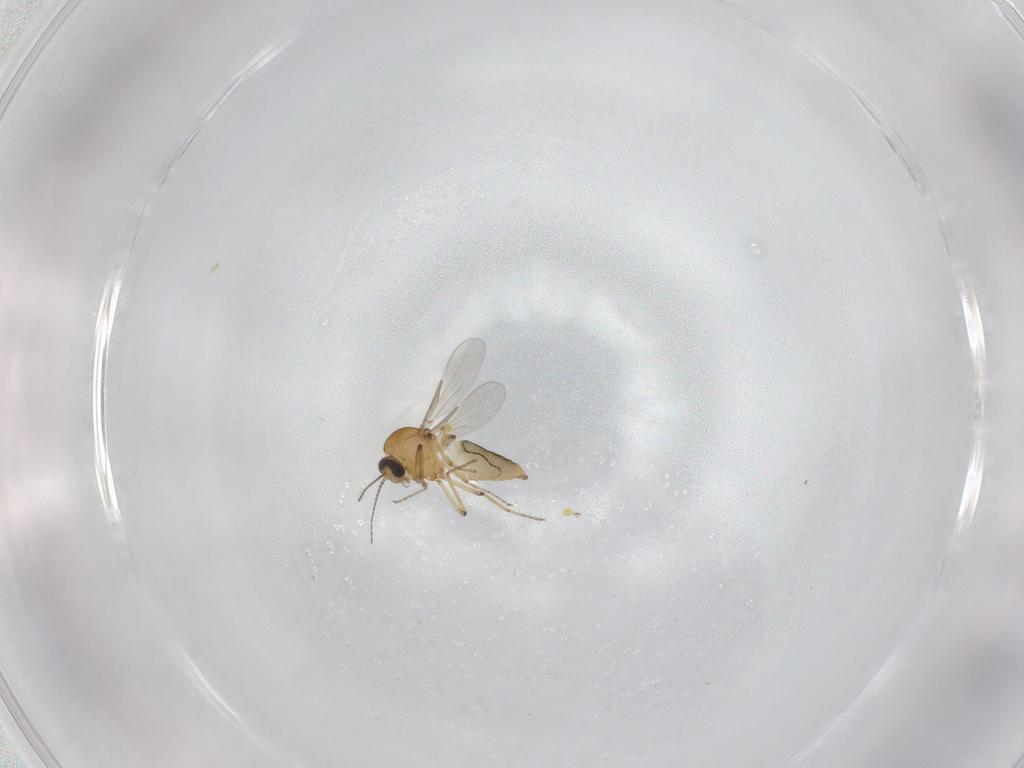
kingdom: Animalia
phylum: Arthropoda
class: Insecta
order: Diptera
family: Ceratopogonidae
